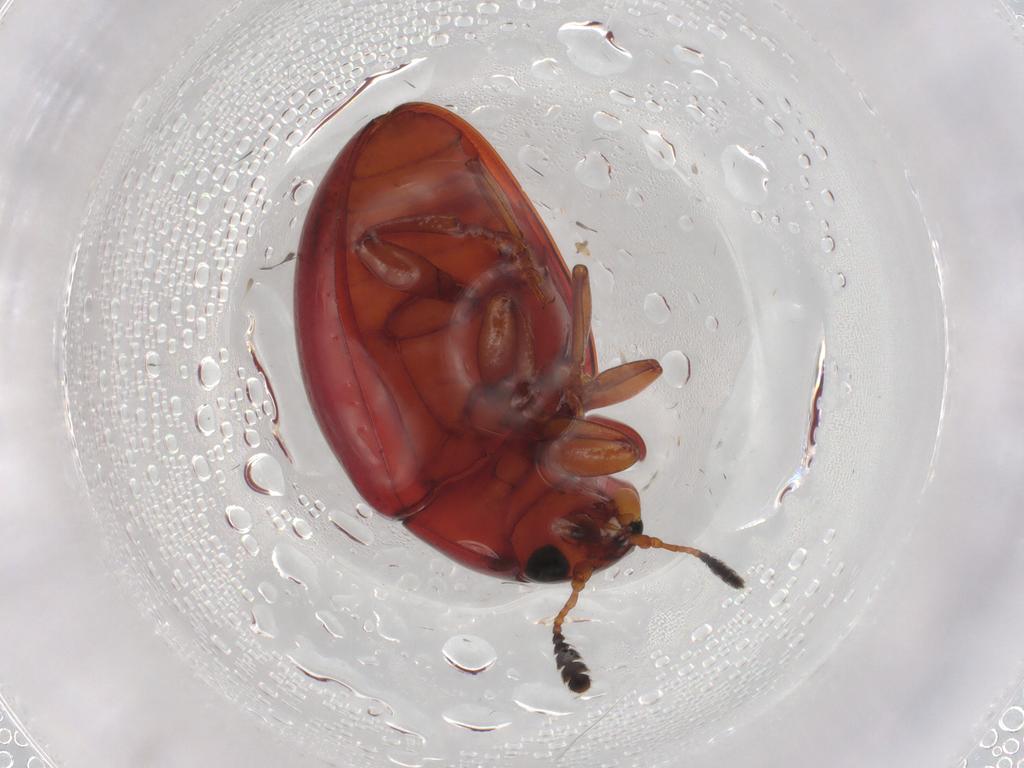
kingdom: Animalia
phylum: Arthropoda
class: Insecta
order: Coleoptera
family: Erotylidae
